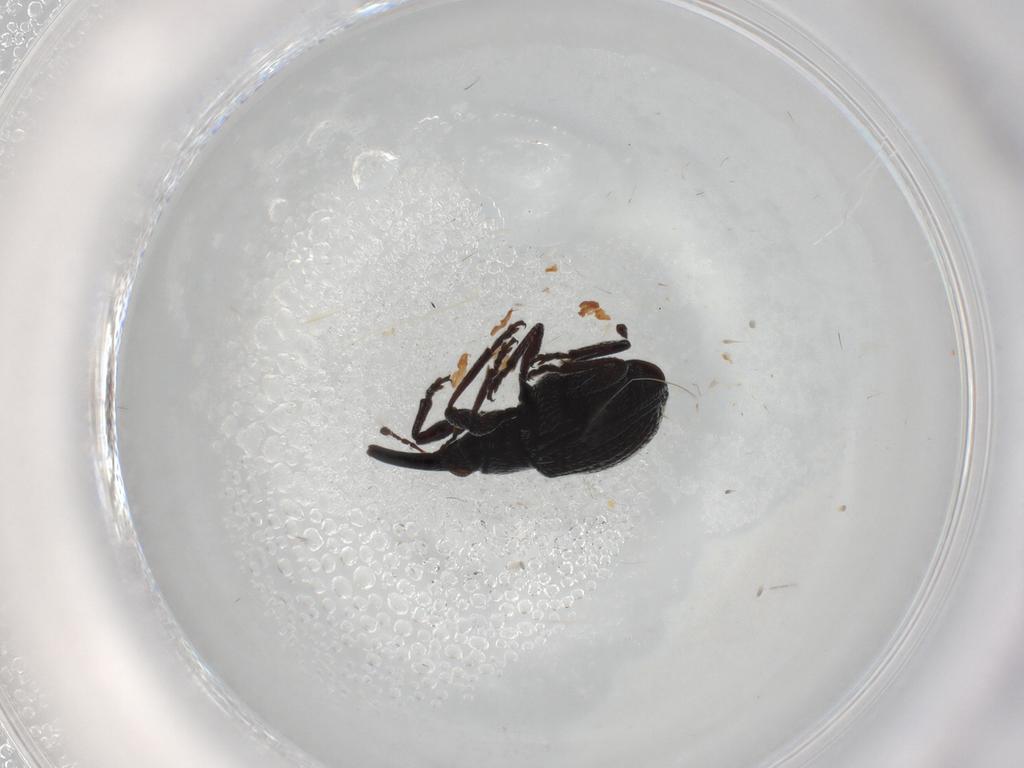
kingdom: Animalia
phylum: Arthropoda
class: Insecta
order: Coleoptera
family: Brentidae
